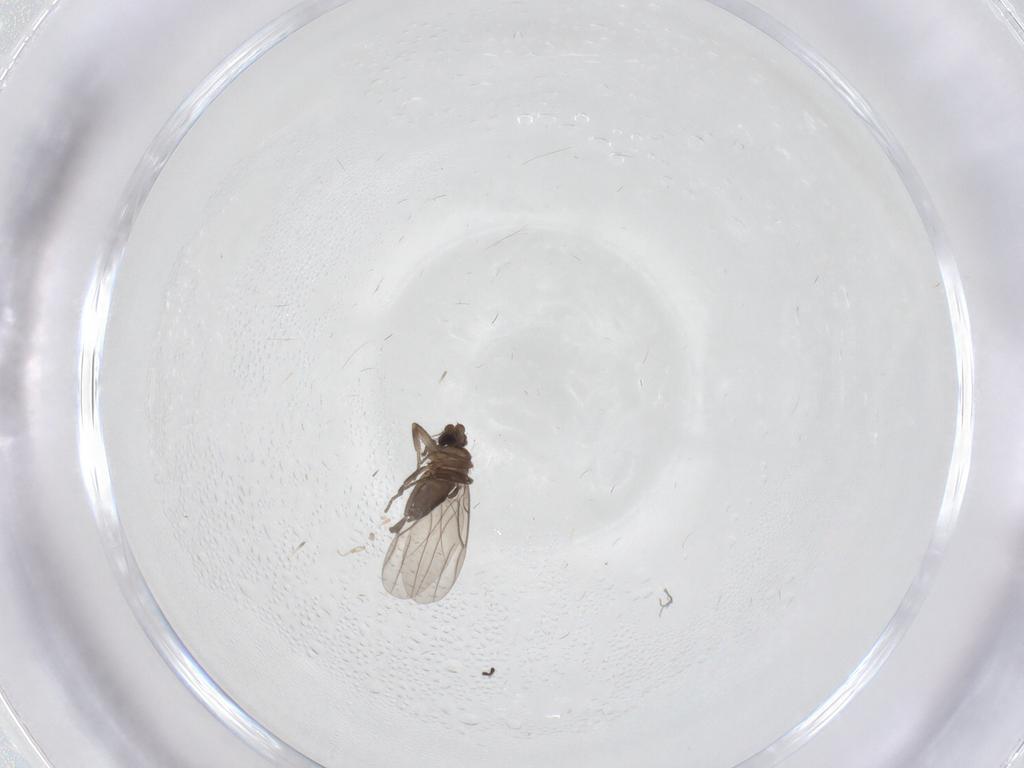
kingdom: Animalia
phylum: Arthropoda
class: Insecta
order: Diptera
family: Phoridae
